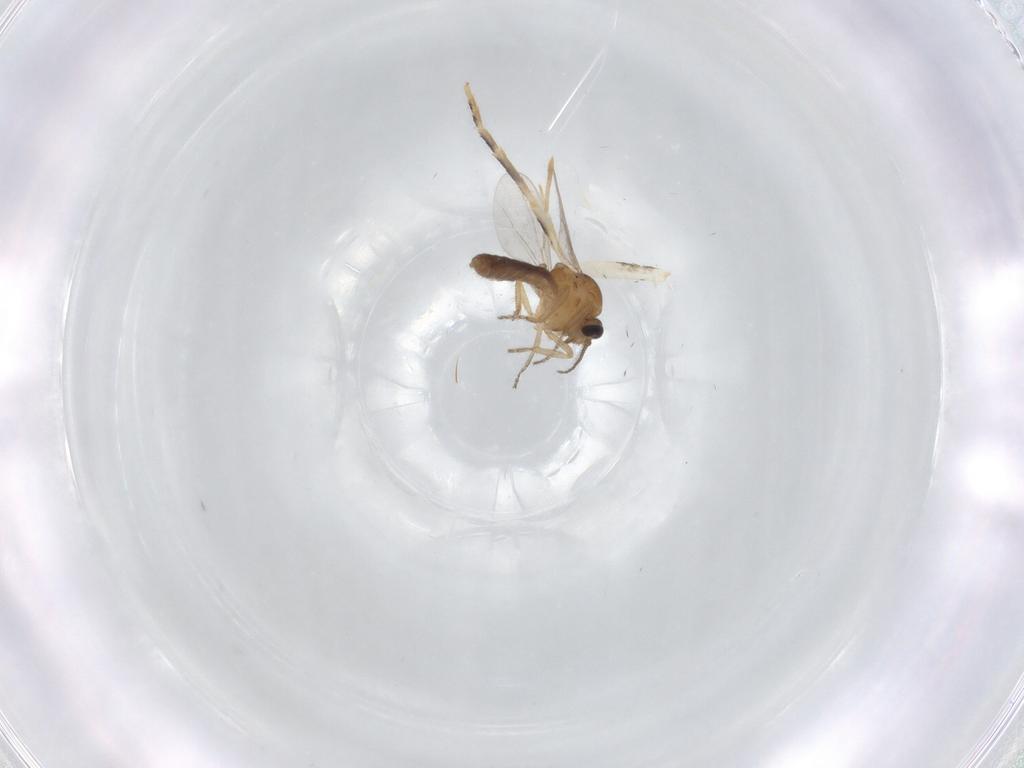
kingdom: Animalia
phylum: Arthropoda
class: Insecta
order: Diptera
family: Ceratopogonidae
